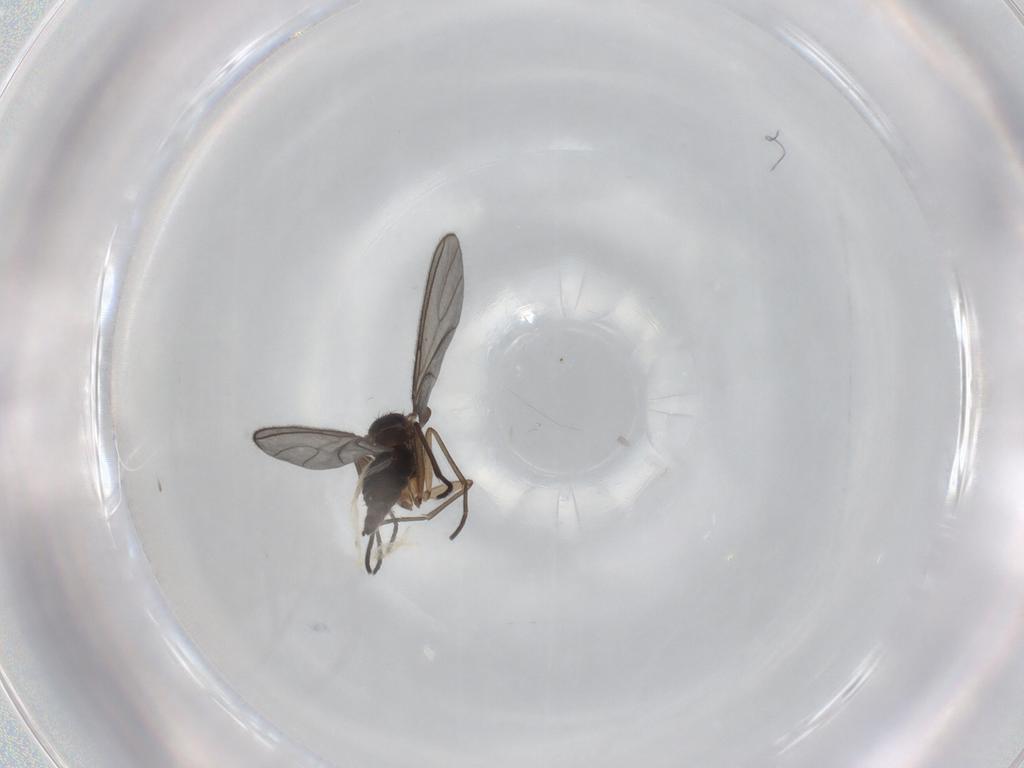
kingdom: Animalia
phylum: Arthropoda
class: Insecta
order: Diptera
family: Sciaridae
